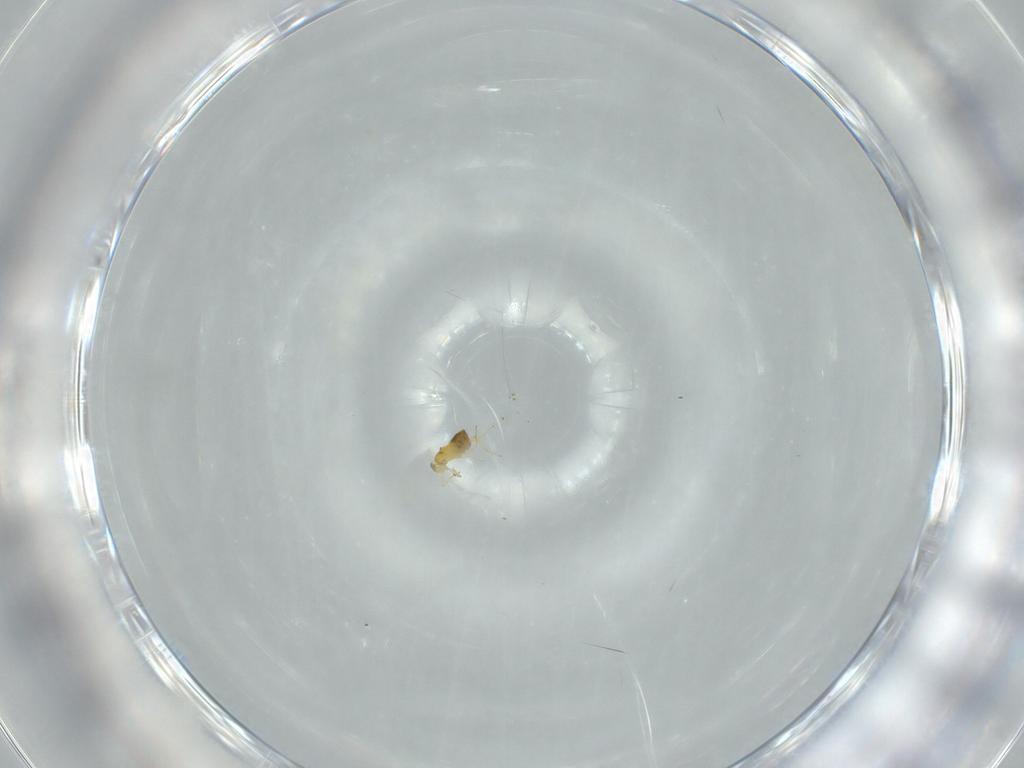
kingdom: Animalia
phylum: Arthropoda
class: Insecta
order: Hymenoptera
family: Trichogrammatidae
